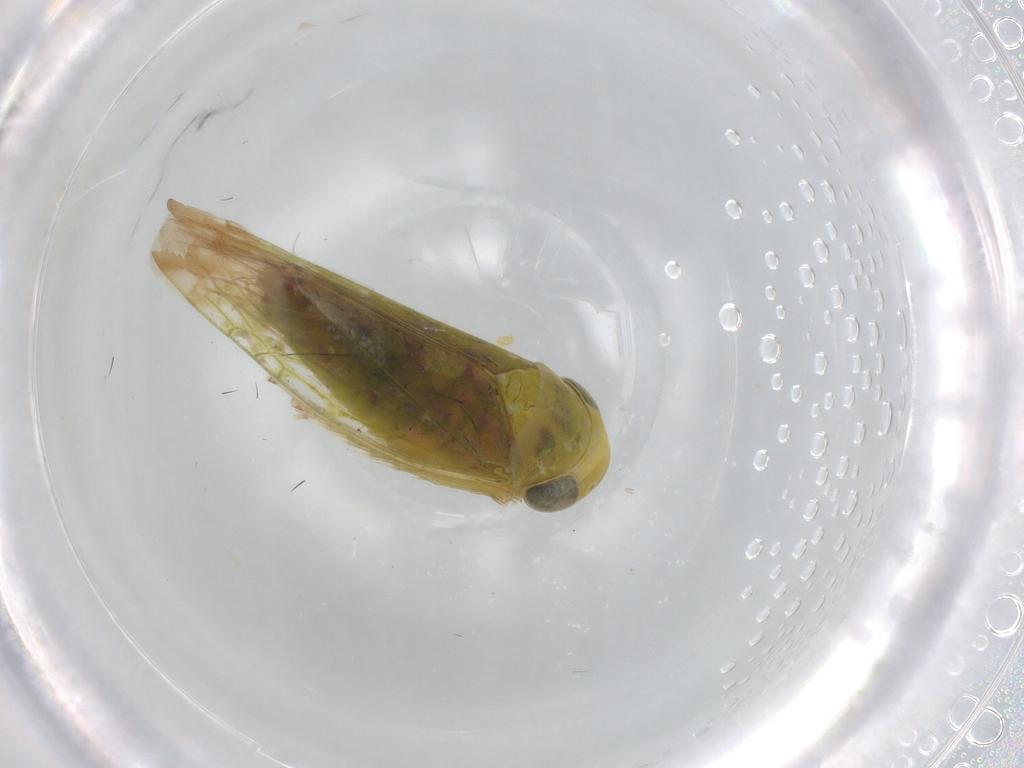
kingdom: Animalia
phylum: Arthropoda
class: Insecta
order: Hemiptera
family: Cicadellidae
